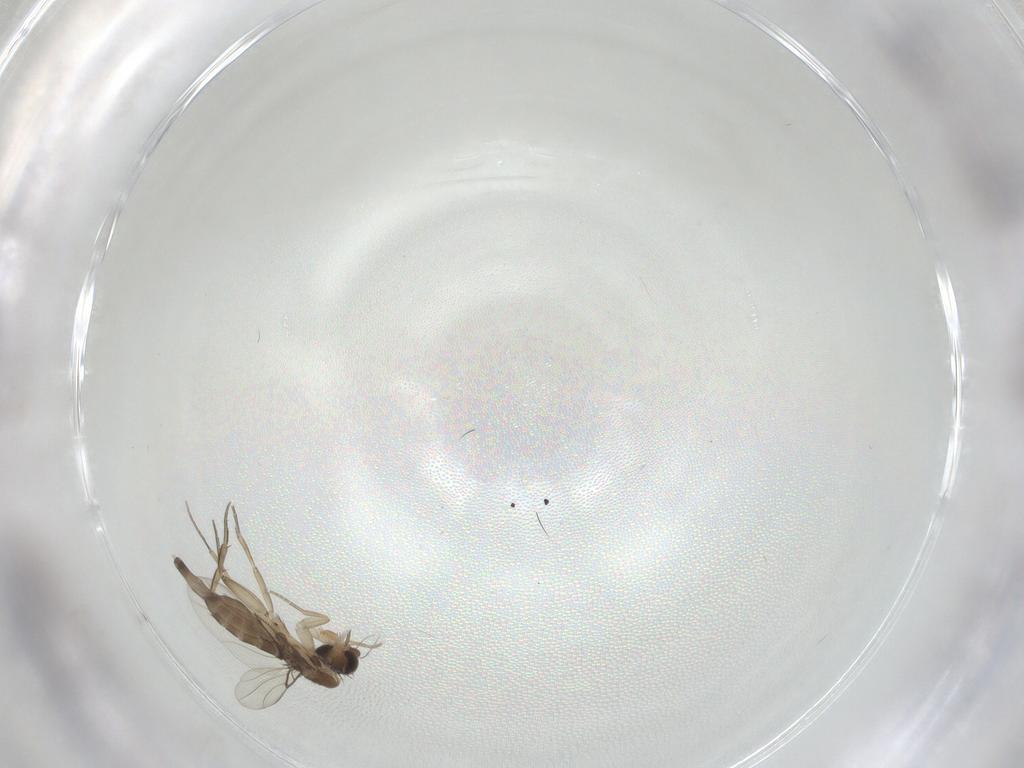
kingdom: Animalia
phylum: Arthropoda
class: Insecta
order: Diptera
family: Phoridae
